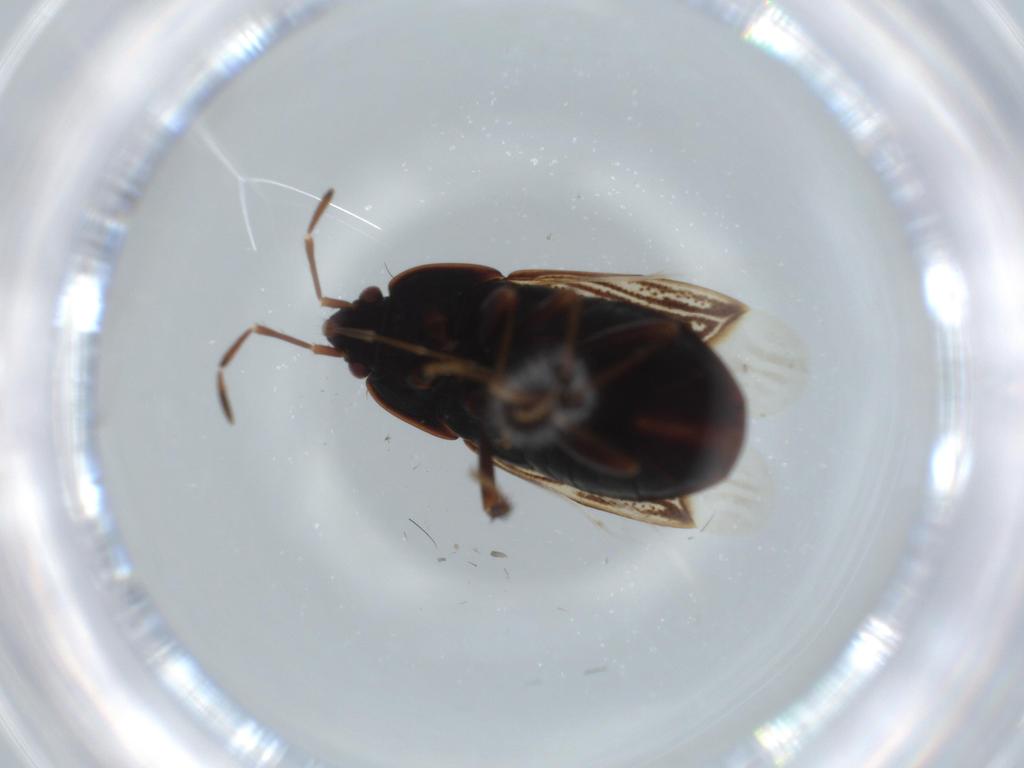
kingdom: Animalia
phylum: Arthropoda
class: Insecta
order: Hemiptera
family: Rhyparochromidae
